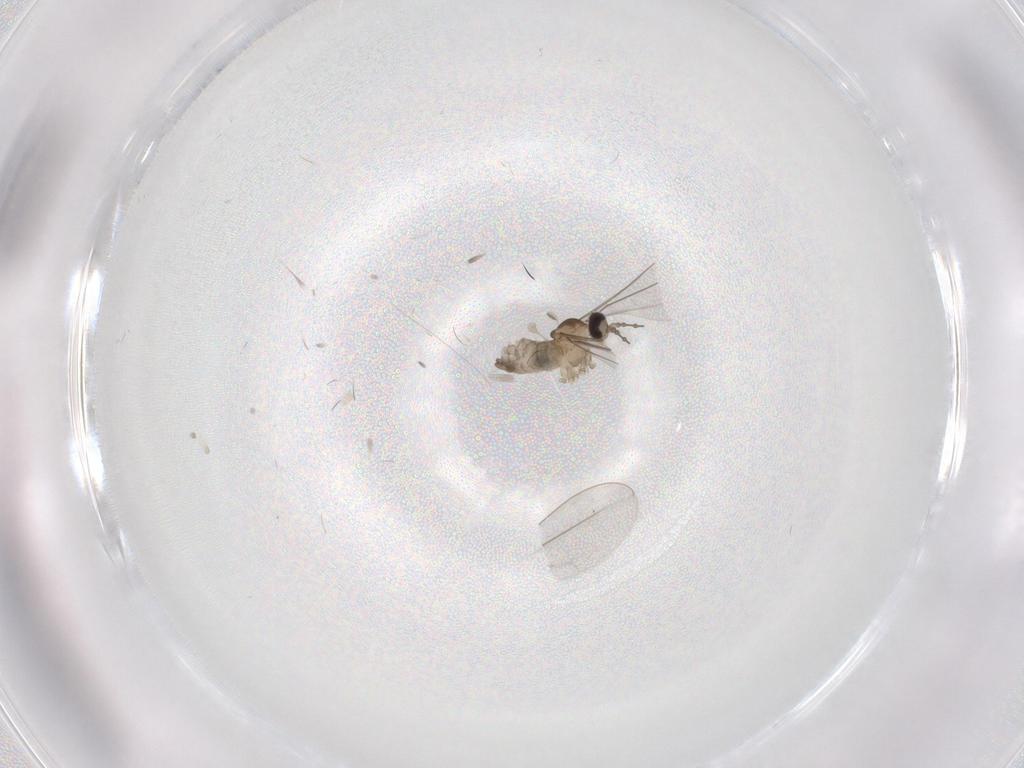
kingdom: Animalia
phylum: Arthropoda
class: Insecta
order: Diptera
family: Cecidomyiidae
